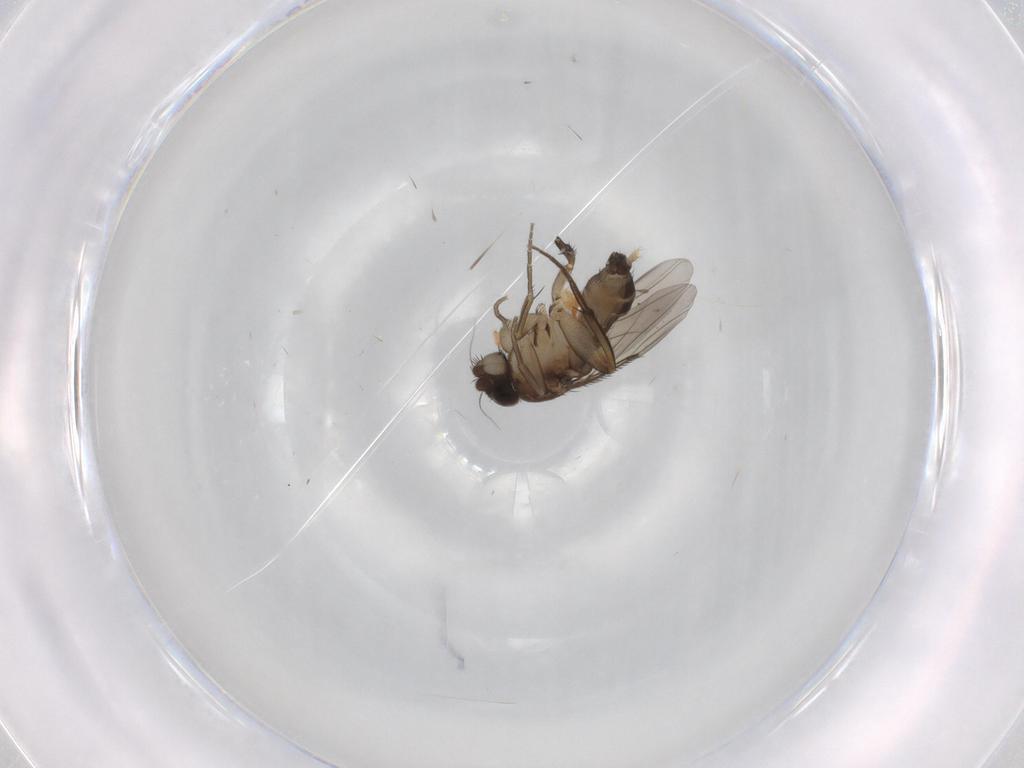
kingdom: Animalia
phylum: Arthropoda
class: Insecta
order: Diptera
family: Phoridae
